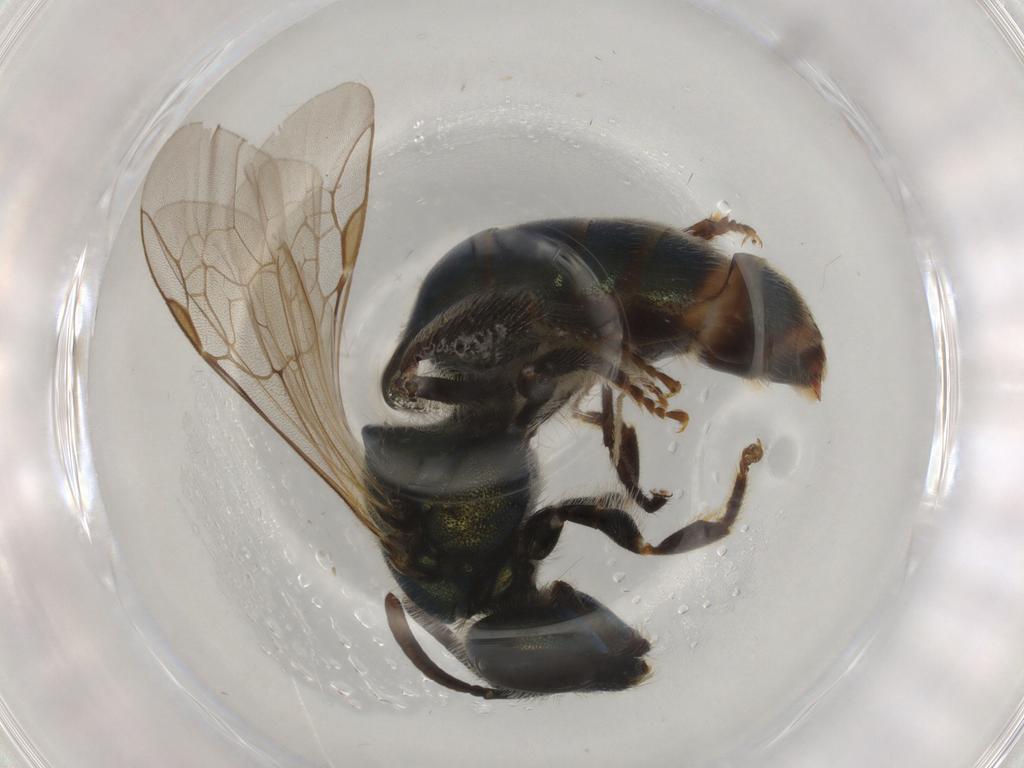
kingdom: Animalia
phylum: Arthropoda
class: Insecta
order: Hymenoptera
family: Halictidae
